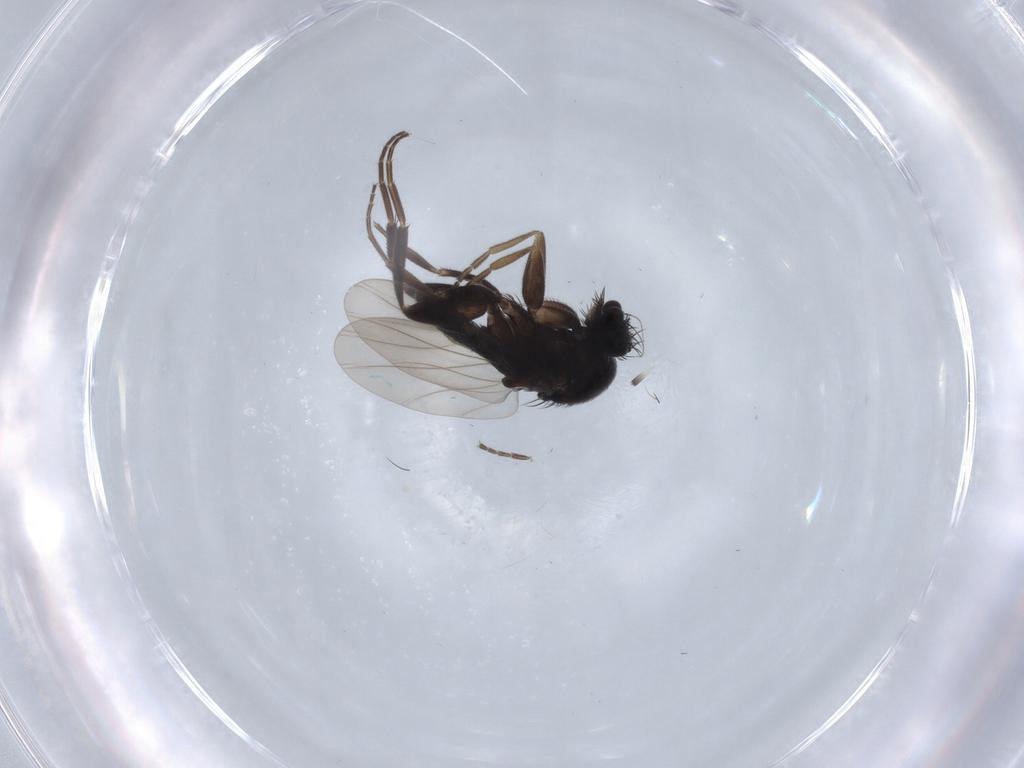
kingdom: Animalia
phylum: Arthropoda
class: Insecta
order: Diptera
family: Phoridae
